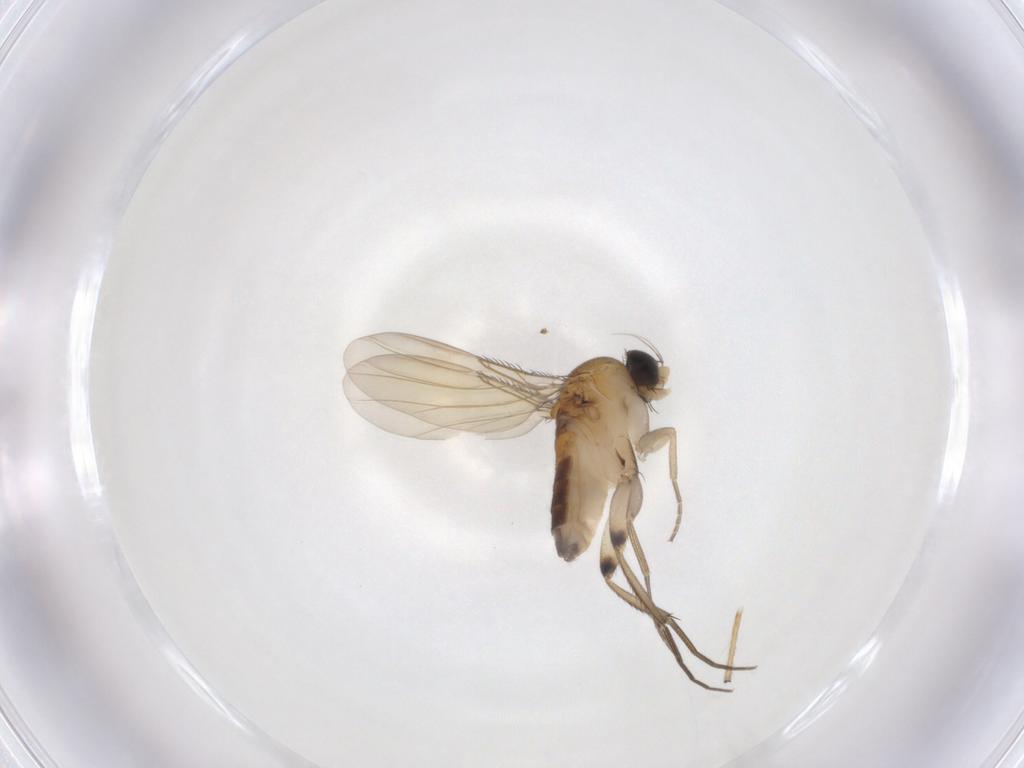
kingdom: Animalia
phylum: Arthropoda
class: Insecta
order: Diptera
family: Phoridae
